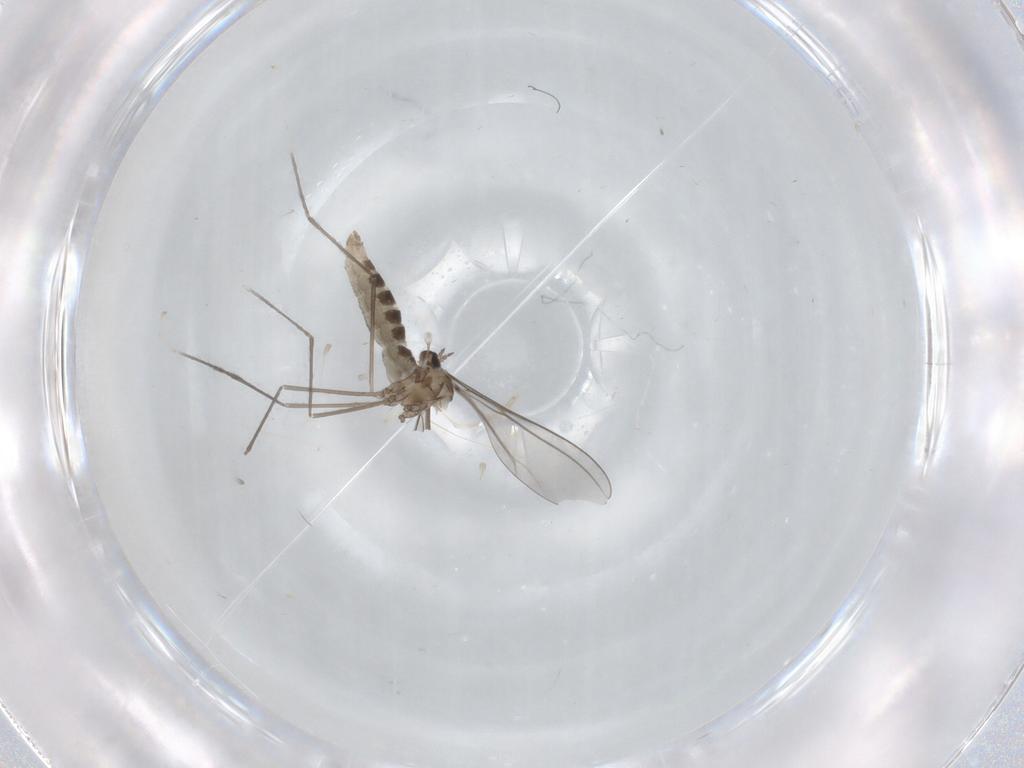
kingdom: Animalia
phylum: Arthropoda
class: Insecta
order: Diptera
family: Cecidomyiidae
